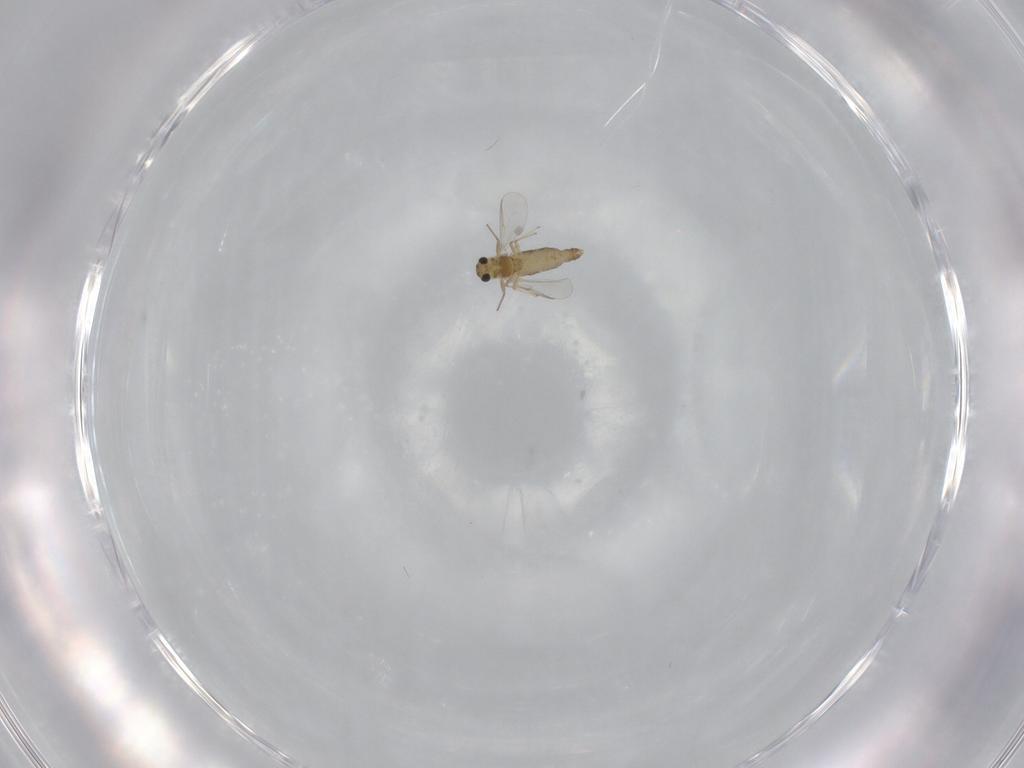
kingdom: Animalia
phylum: Arthropoda
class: Insecta
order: Diptera
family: Chironomidae
